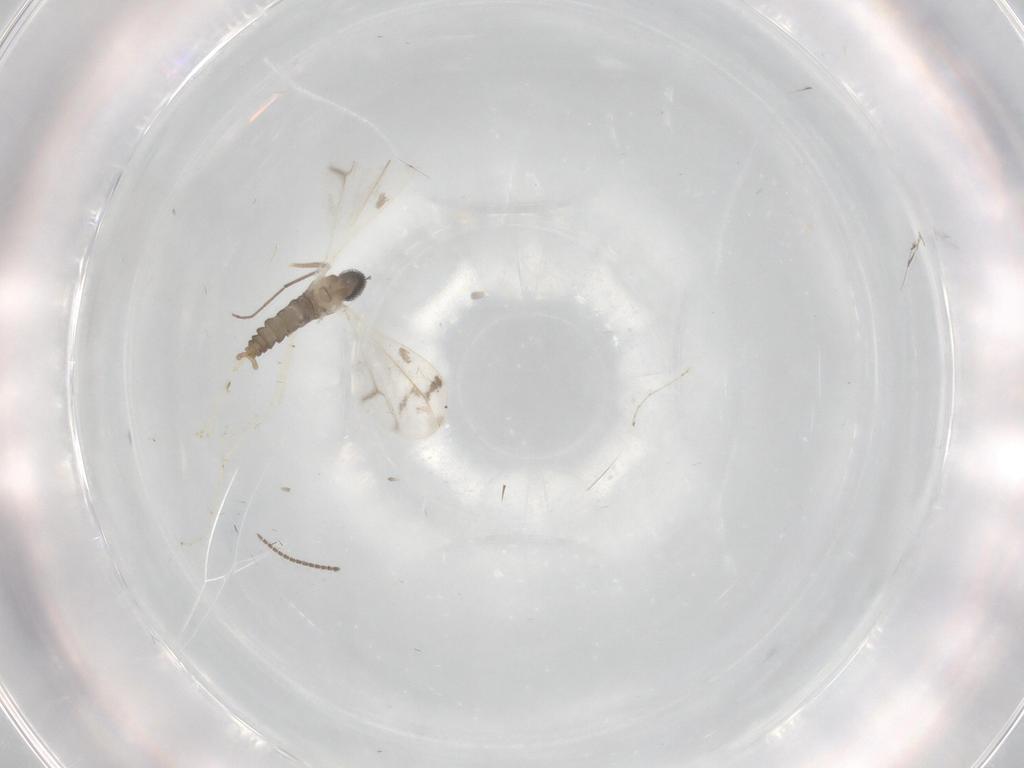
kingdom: Animalia
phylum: Arthropoda
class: Insecta
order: Diptera
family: Cecidomyiidae
